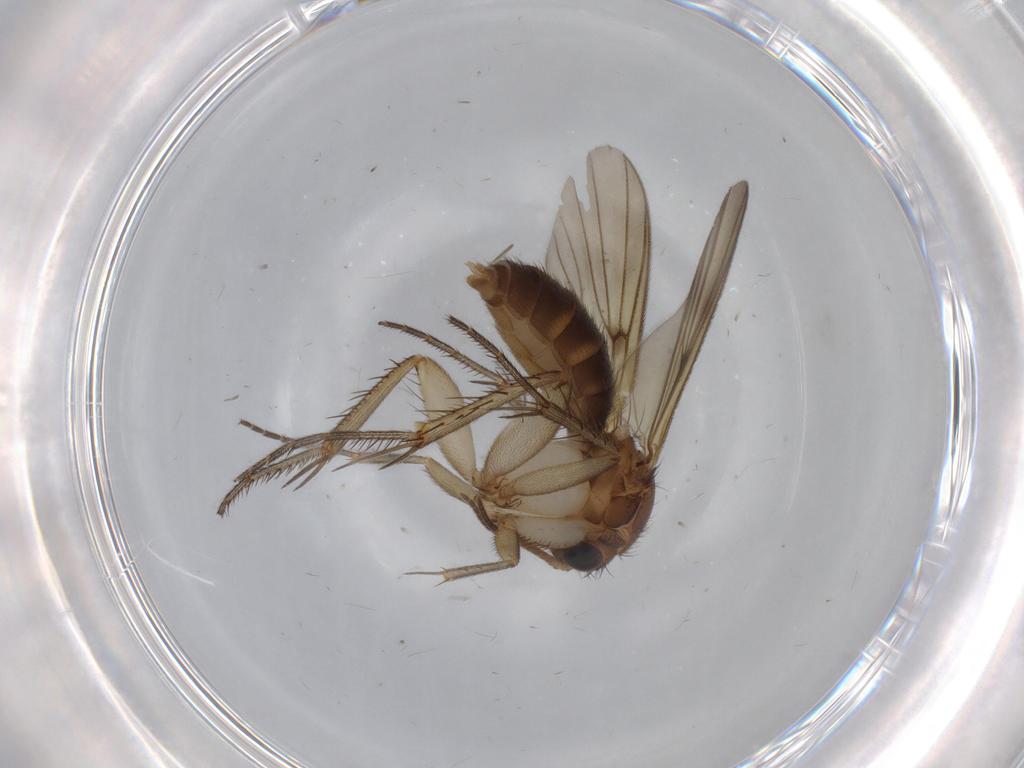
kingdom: Animalia
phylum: Arthropoda
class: Insecta
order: Diptera
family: Mycetophilidae
